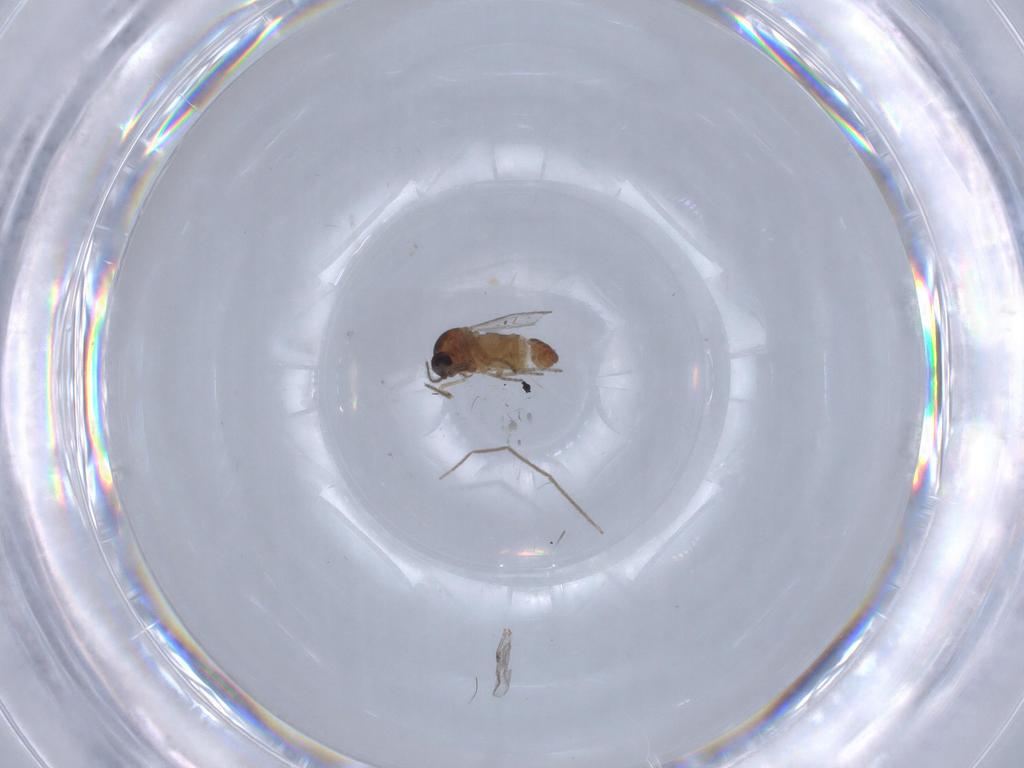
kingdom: Animalia
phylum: Arthropoda
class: Insecta
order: Diptera
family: Ceratopogonidae
